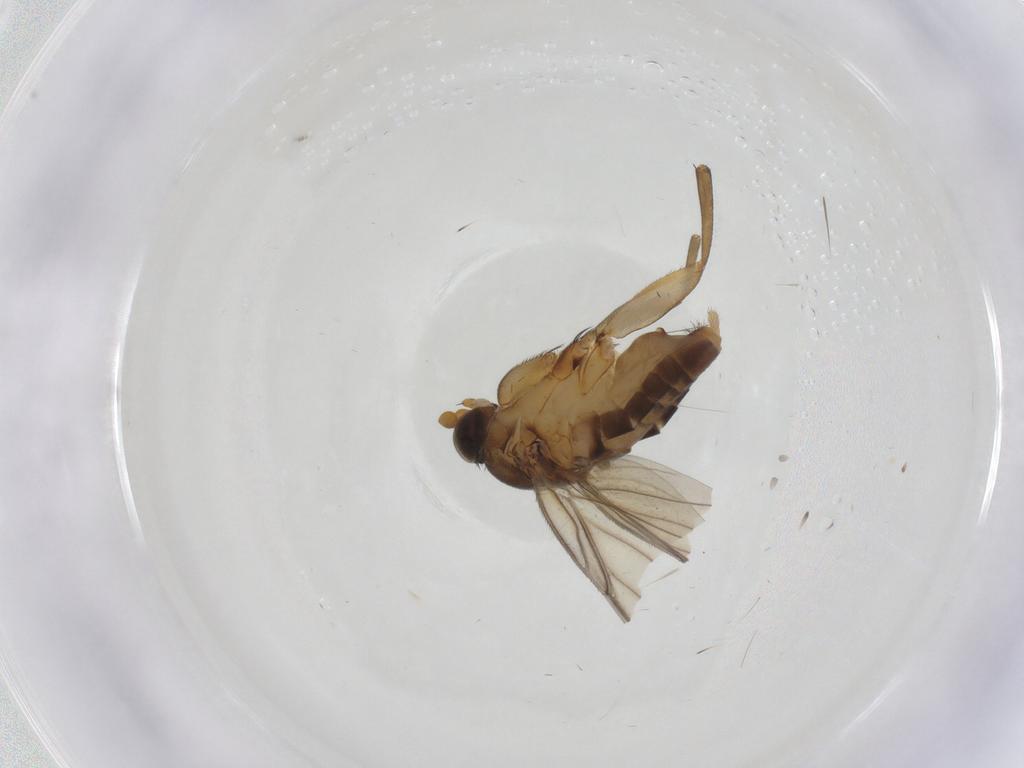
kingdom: Animalia
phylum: Arthropoda
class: Insecta
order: Diptera
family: Phoridae
